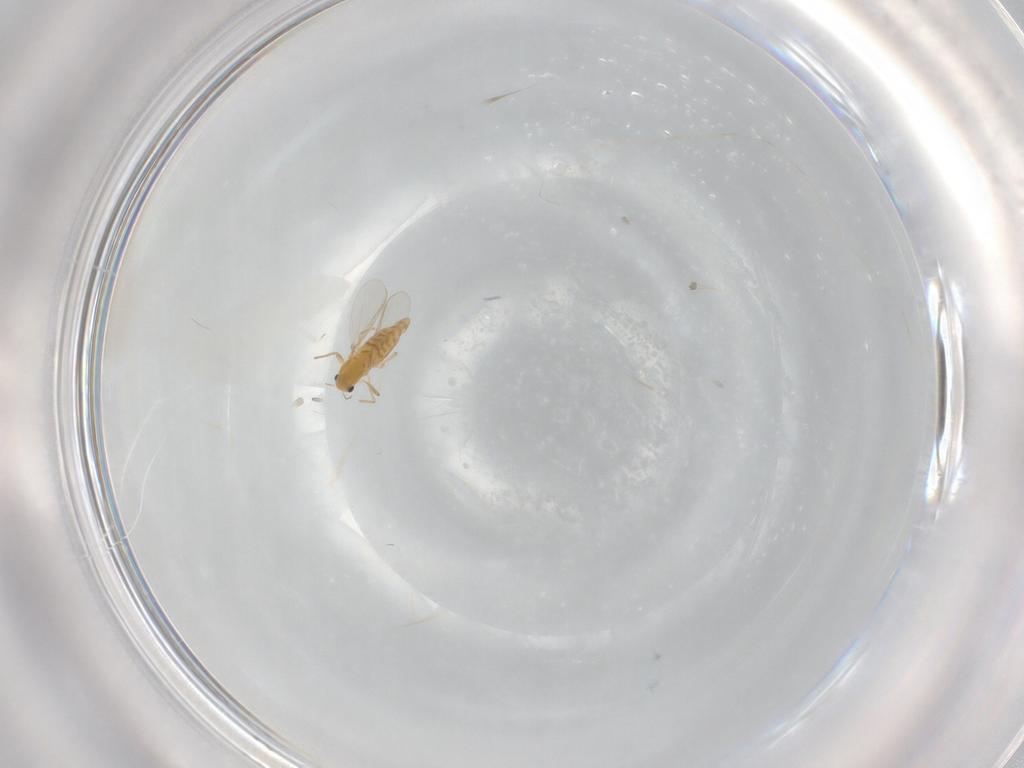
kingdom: Animalia
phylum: Arthropoda
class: Insecta
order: Diptera
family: Chironomidae
